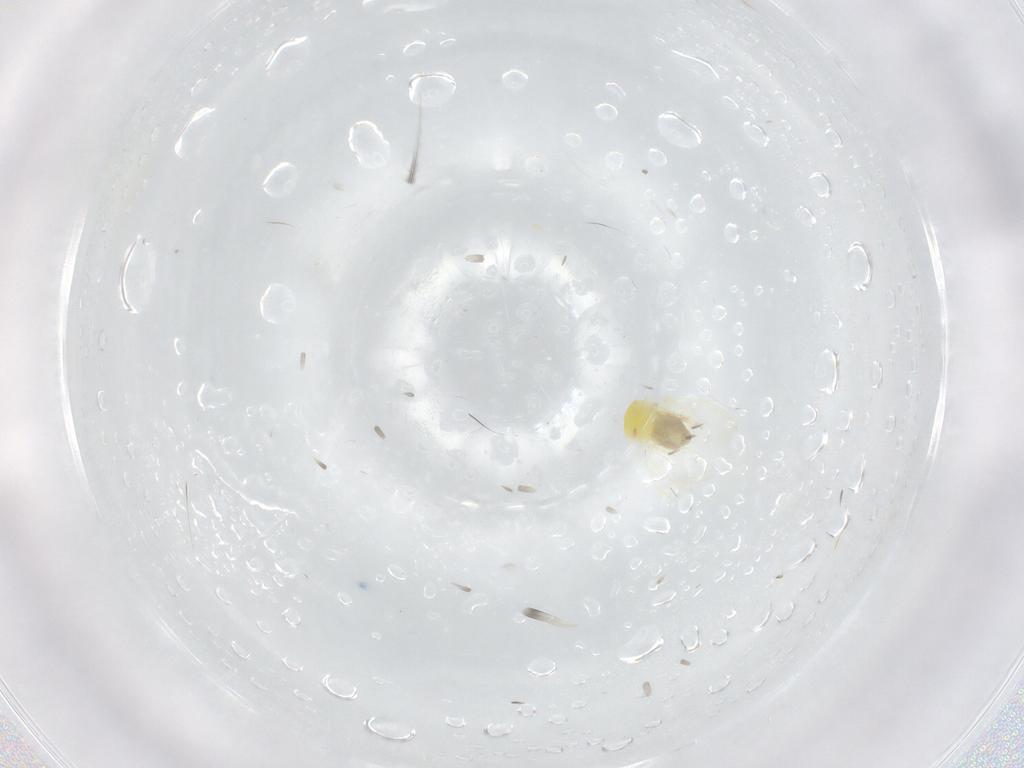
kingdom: Animalia
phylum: Arthropoda
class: Insecta
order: Hemiptera
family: Aleyrodidae
